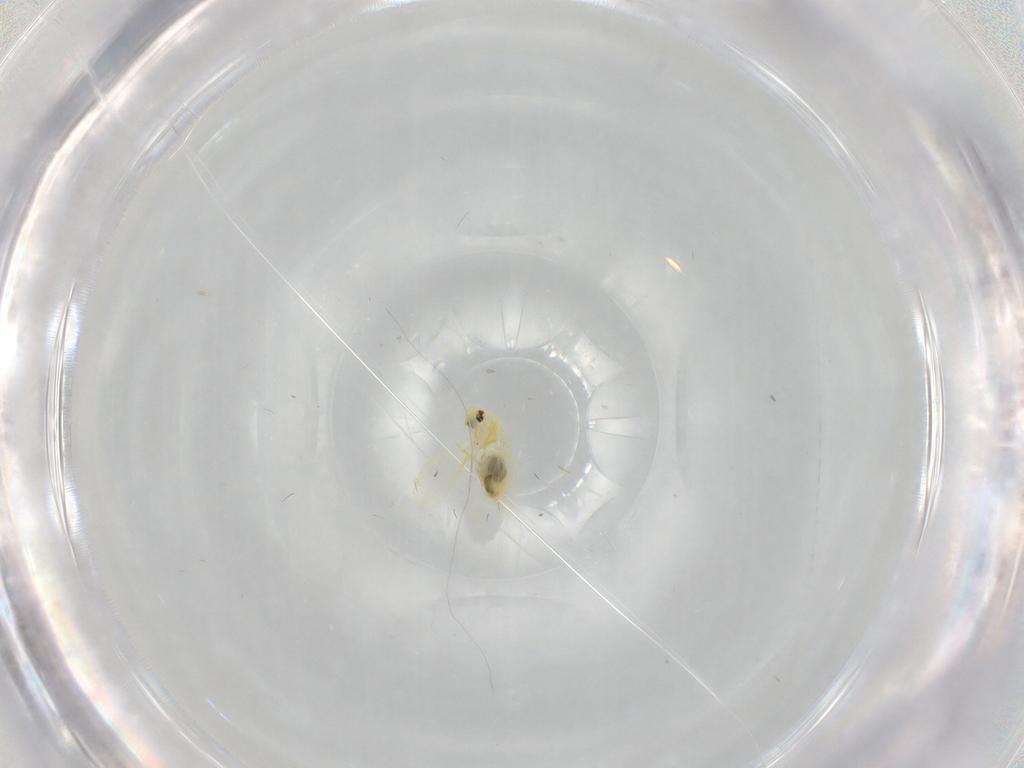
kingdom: Animalia
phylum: Arthropoda
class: Insecta
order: Hemiptera
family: Aleyrodidae
